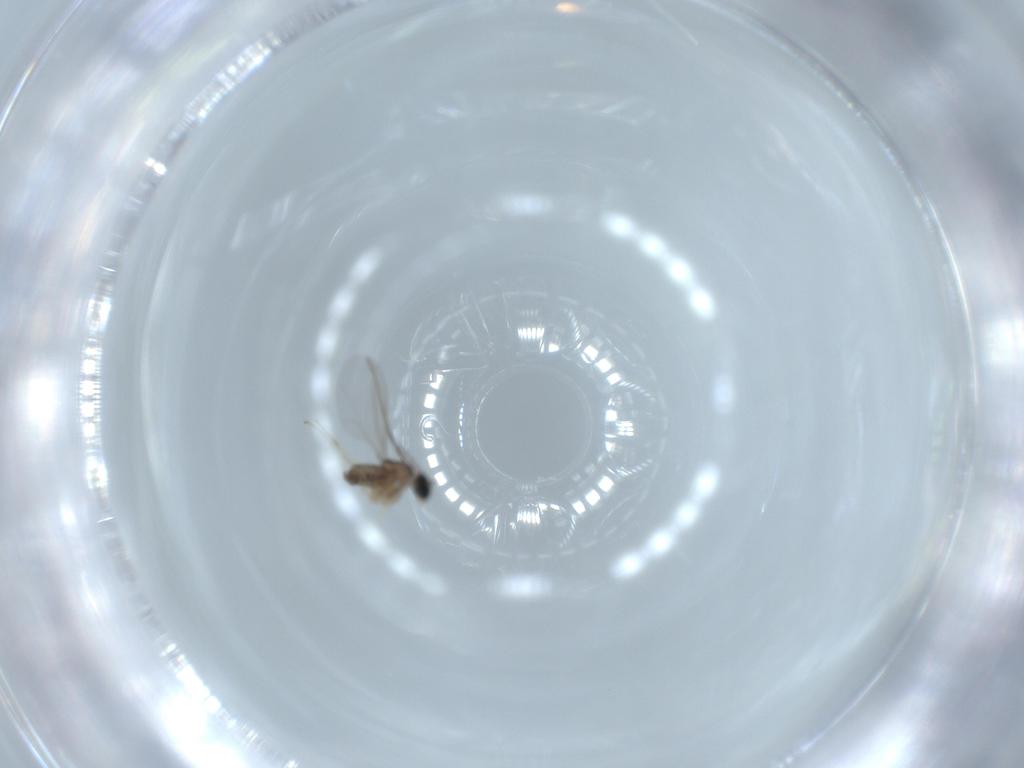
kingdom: Animalia
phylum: Arthropoda
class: Insecta
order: Diptera
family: Cecidomyiidae
